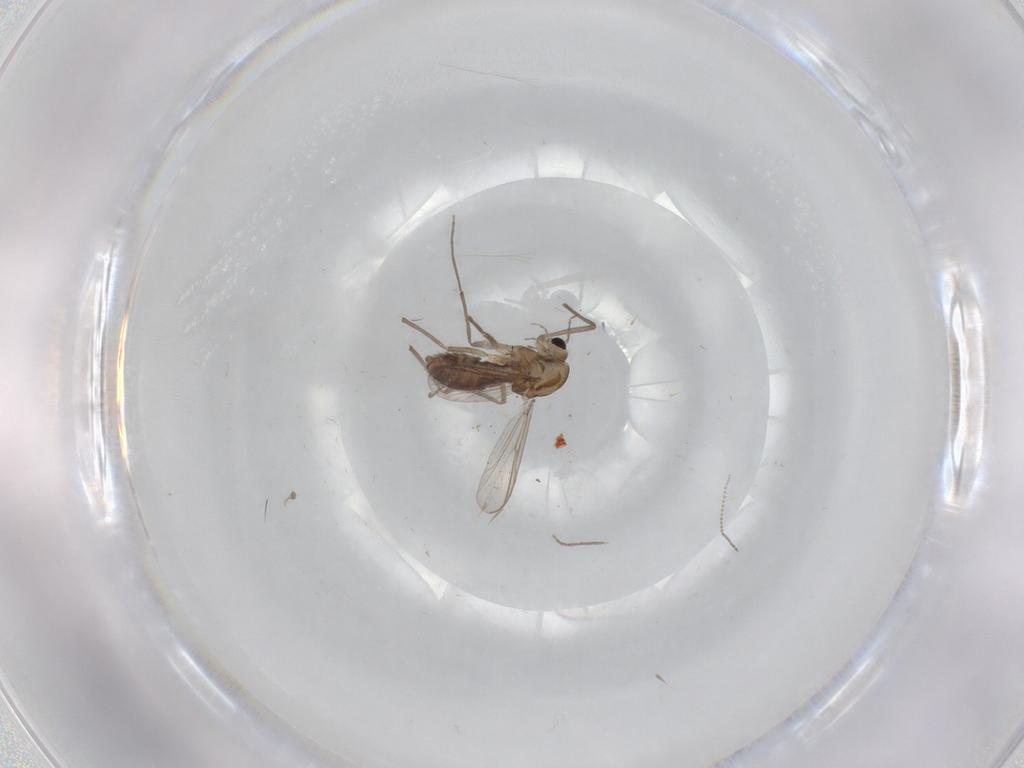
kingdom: Animalia
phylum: Arthropoda
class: Insecta
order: Diptera
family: Chironomidae
